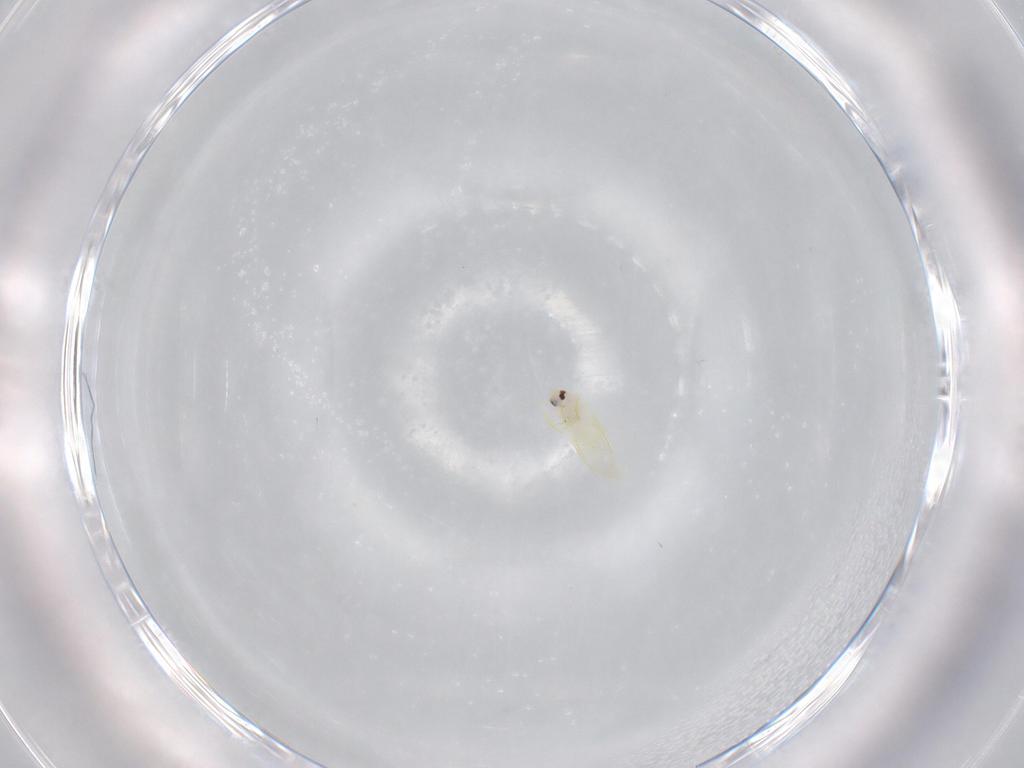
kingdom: Animalia
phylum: Arthropoda
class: Insecta
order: Hemiptera
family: Aleyrodidae
